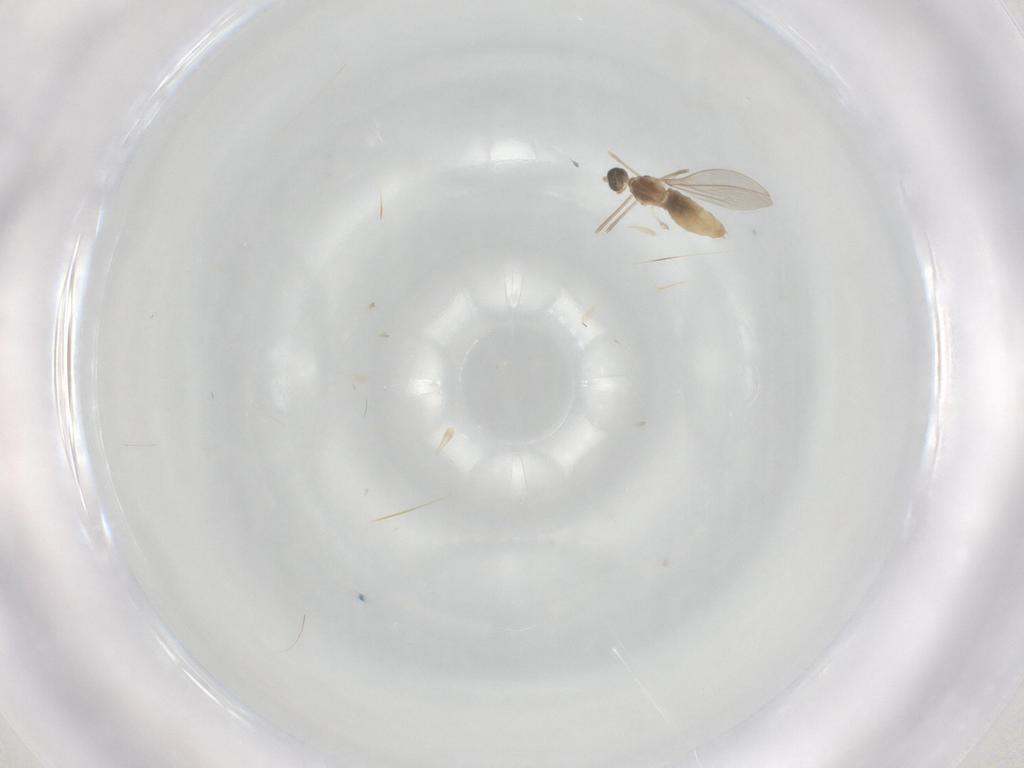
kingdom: Animalia
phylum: Arthropoda
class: Insecta
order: Diptera
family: Cecidomyiidae
